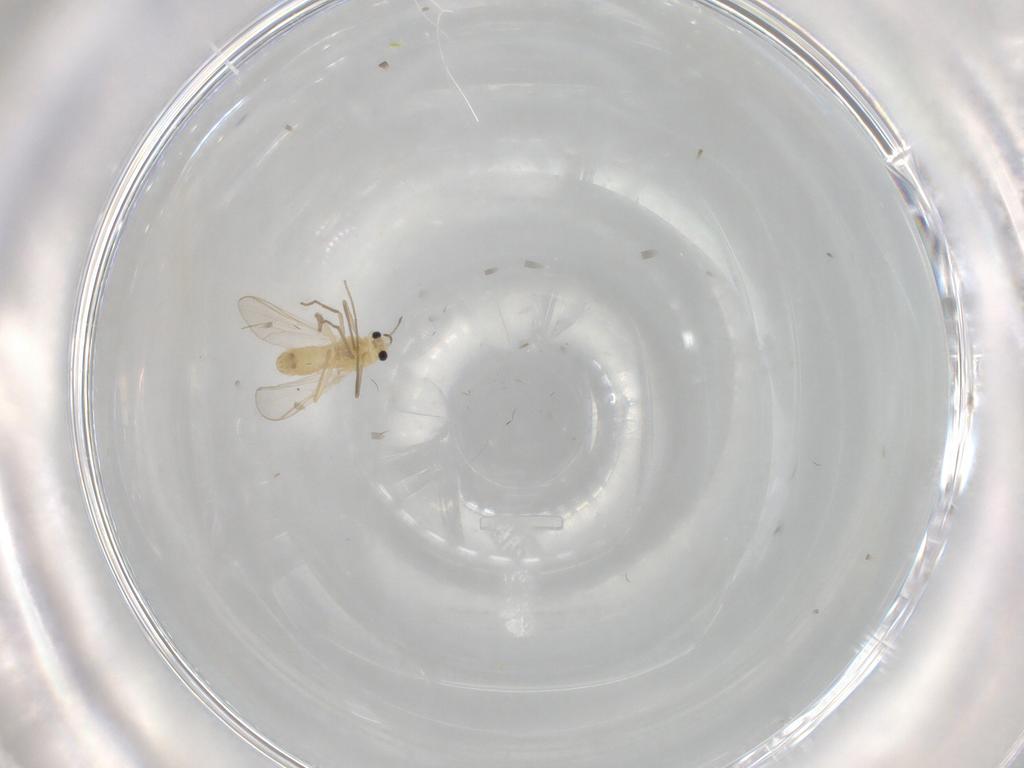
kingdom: Animalia
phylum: Arthropoda
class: Insecta
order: Diptera
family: Chironomidae
